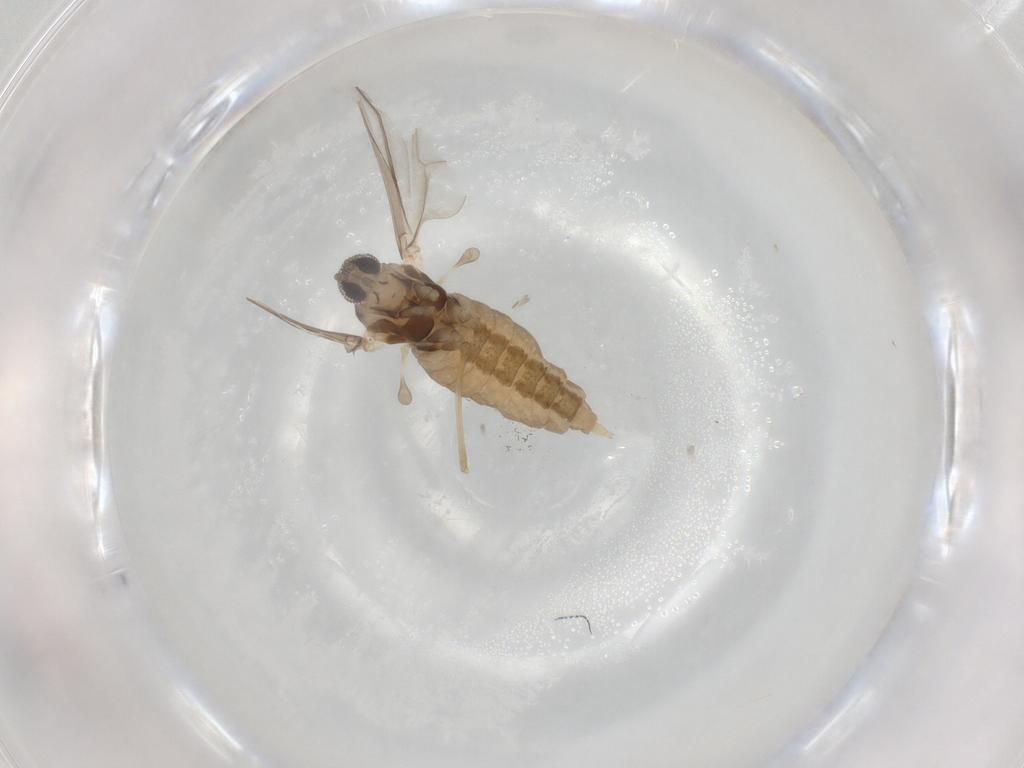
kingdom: Animalia
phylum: Arthropoda
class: Insecta
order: Diptera
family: Cecidomyiidae
